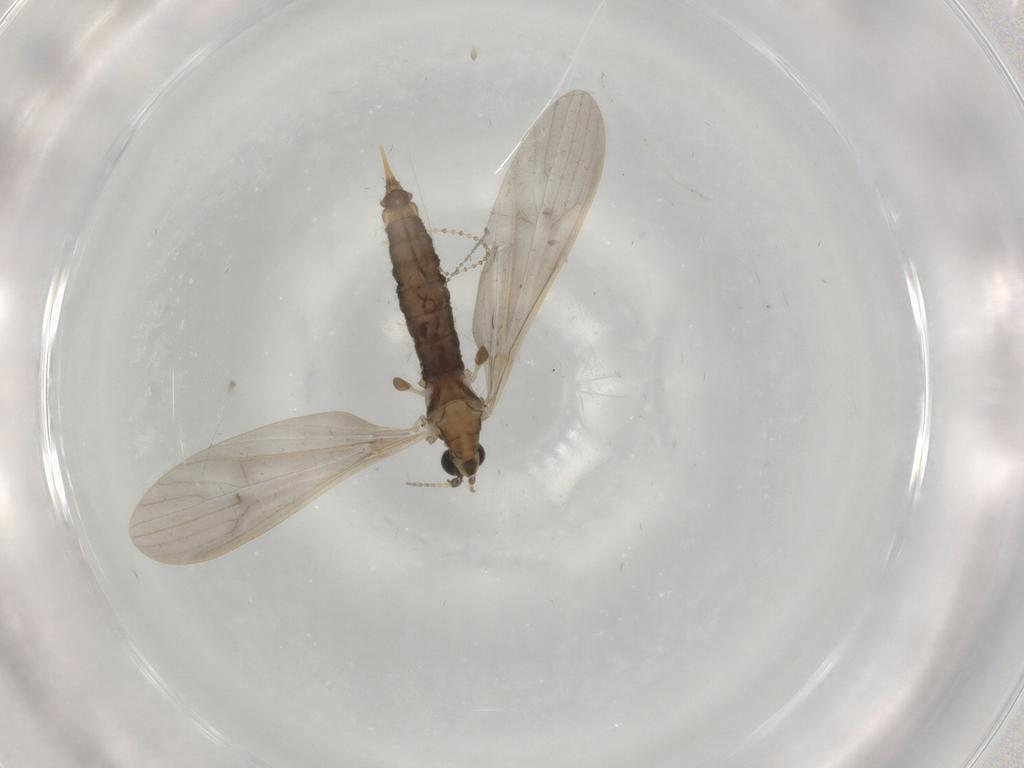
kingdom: Animalia
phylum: Arthropoda
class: Insecta
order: Diptera
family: Limoniidae
